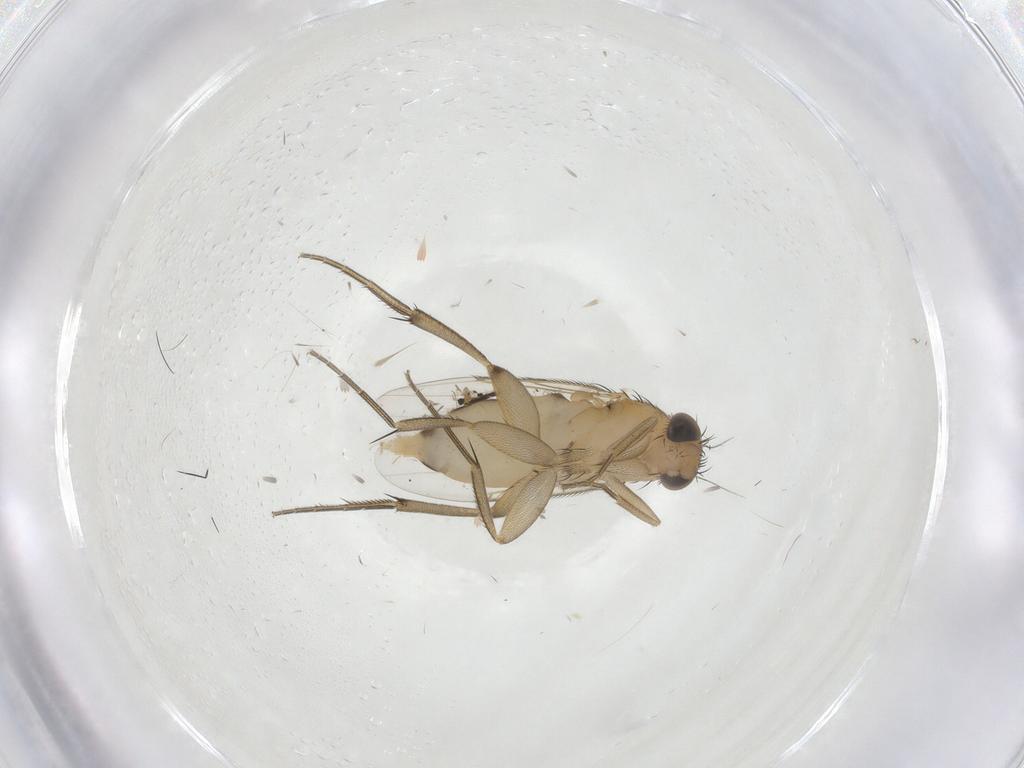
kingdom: Animalia
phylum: Arthropoda
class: Insecta
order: Diptera
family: Phoridae
